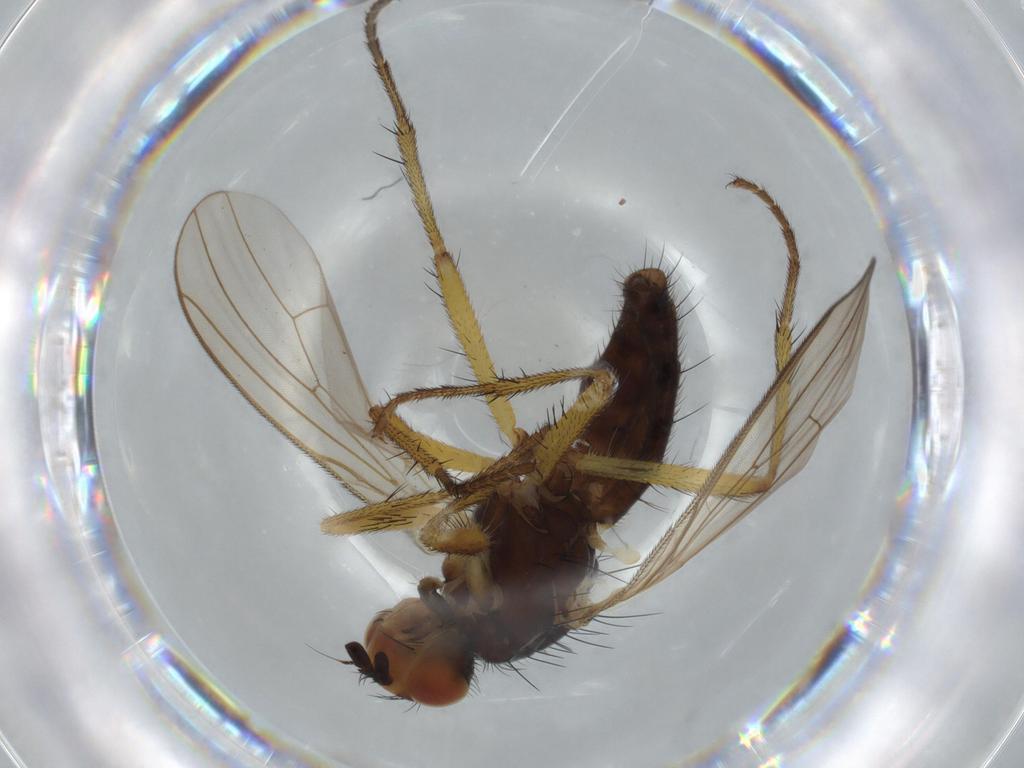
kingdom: Animalia
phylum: Arthropoda
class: Insecta
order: Diptera
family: Scathophagidae
